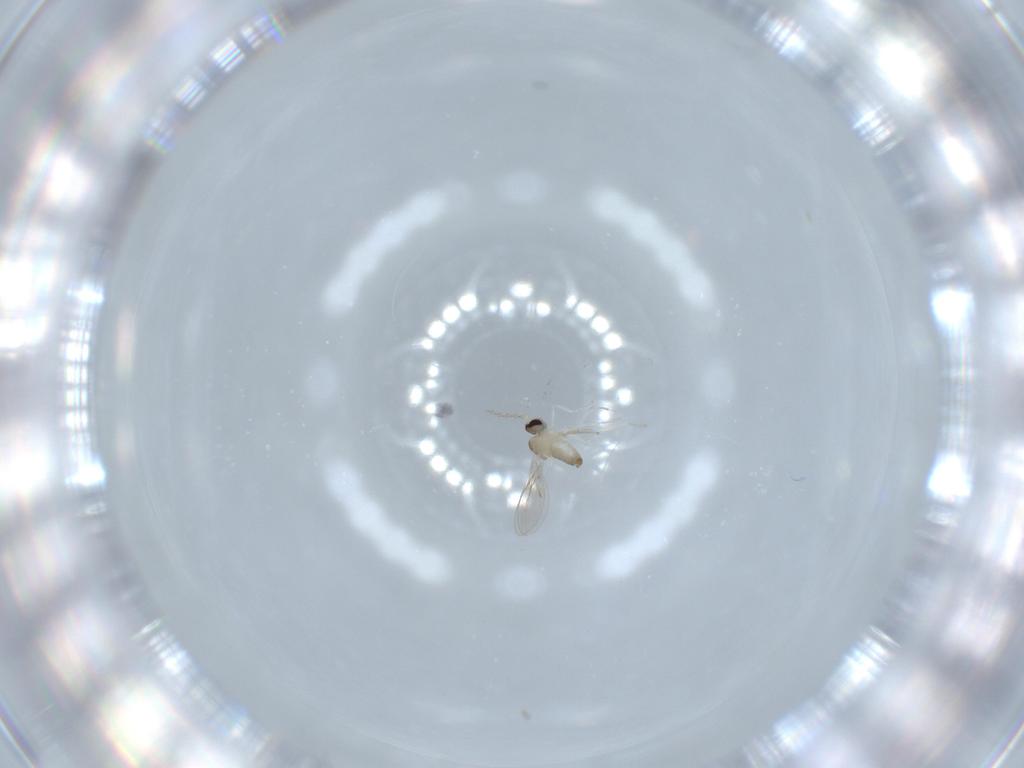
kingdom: Animalia
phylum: Arthropoda
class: Insecta
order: Diptera
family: Cecidomyiidae
